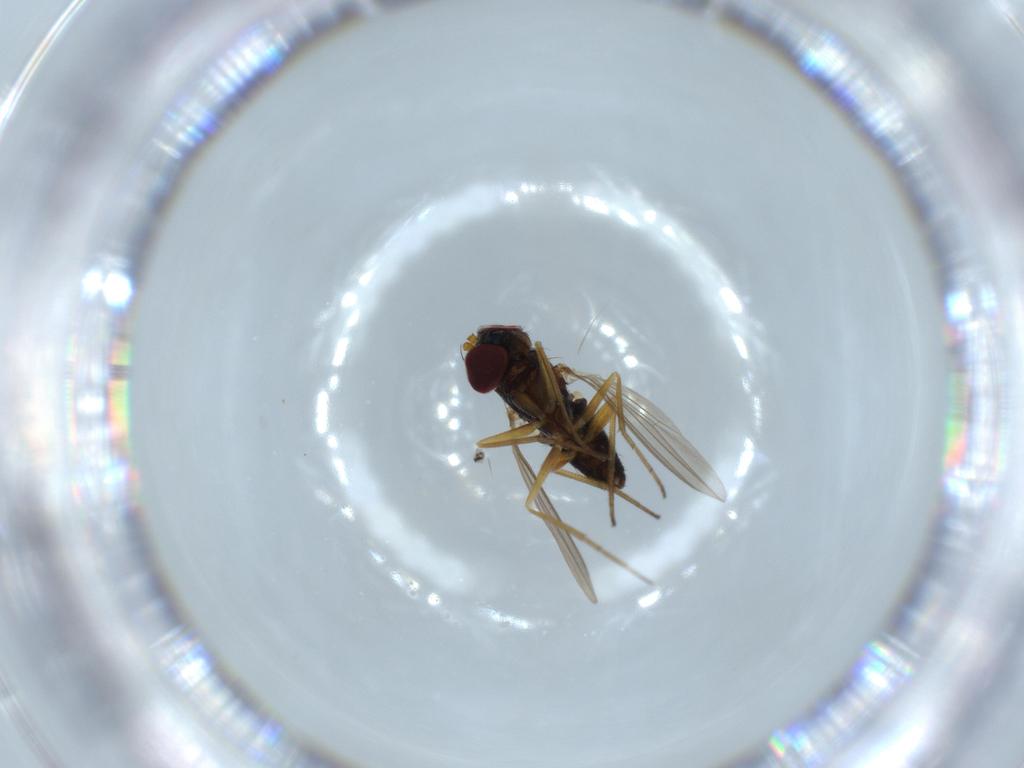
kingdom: Animalia
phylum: Arthropoda
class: Insecta
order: Diptera
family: Dolichopodidae
